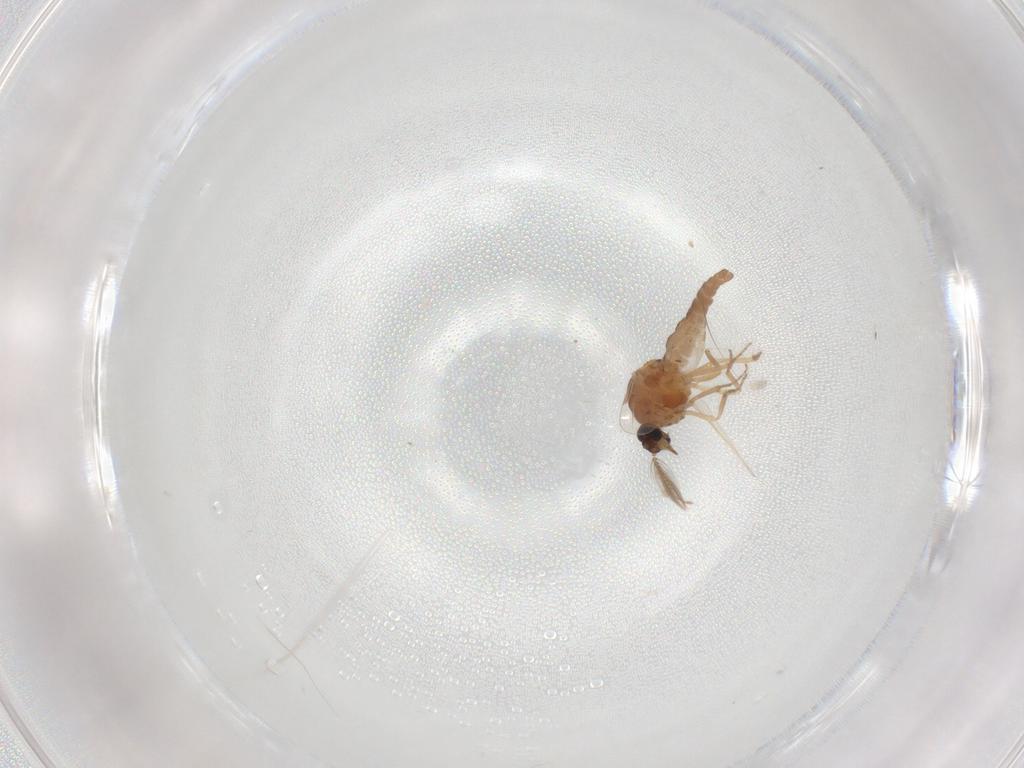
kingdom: Animalia
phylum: Arthropoda
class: Insecta
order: Diptera
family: Ceratopogonidae
